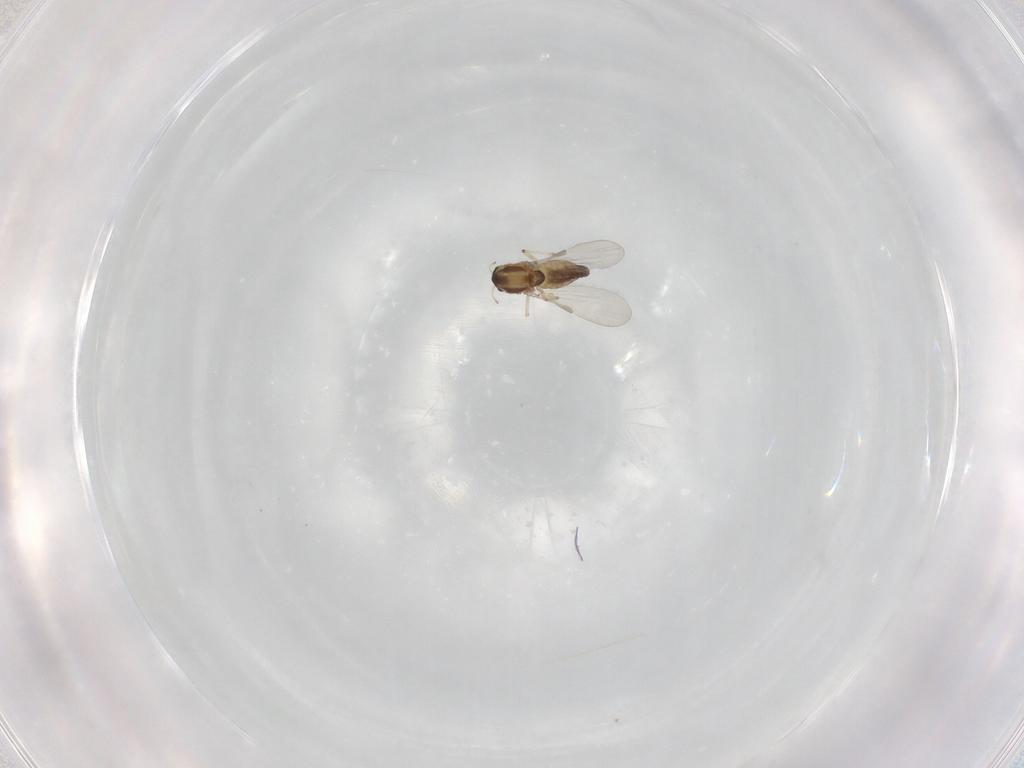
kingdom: Animalia
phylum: Arthropoda
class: Insecta
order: Diptera
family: Chironomidae
